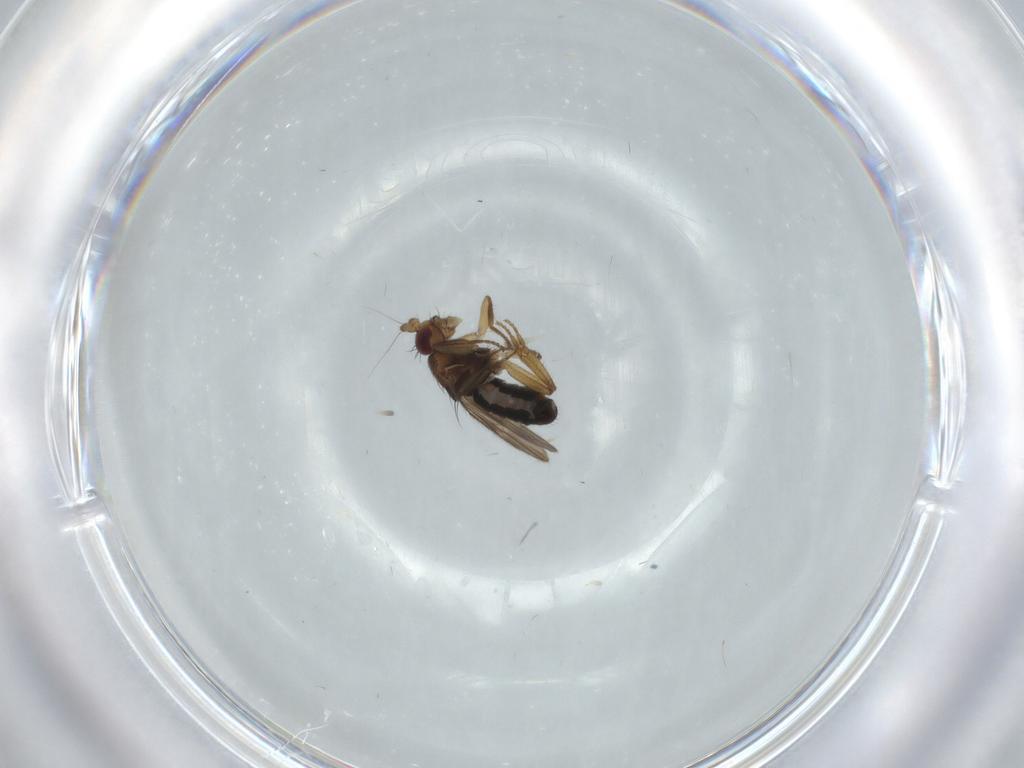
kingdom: Animalia
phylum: Arthropoda
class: Insecta
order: Diptera
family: Sphaeroceridae
